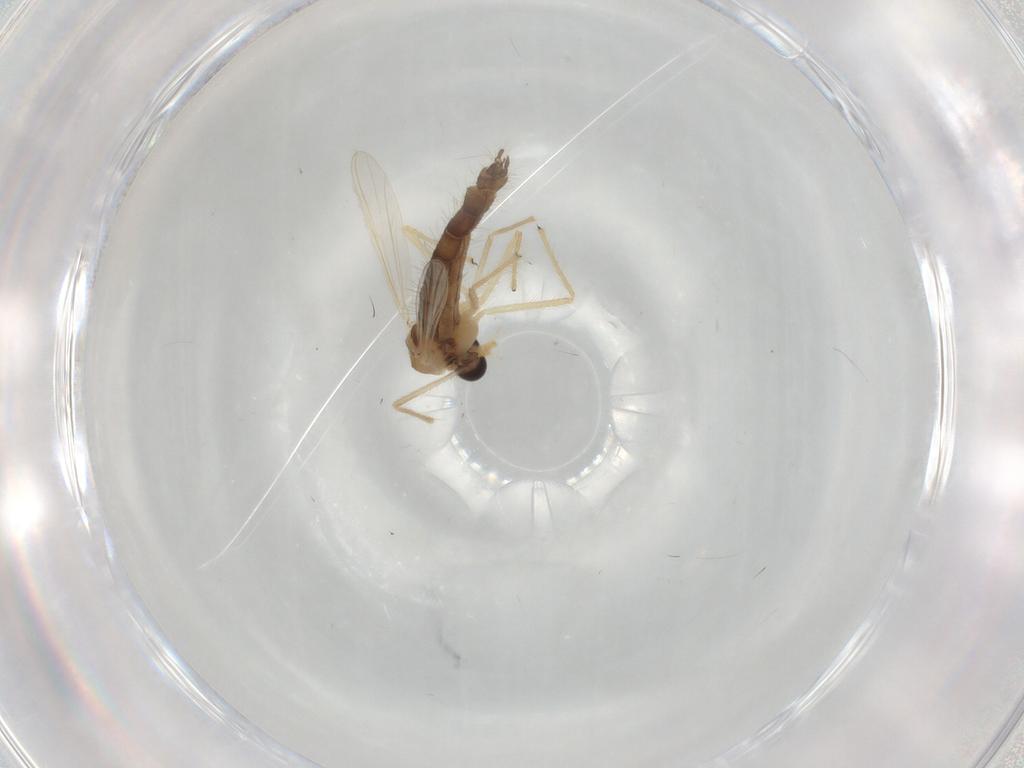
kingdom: Animalia
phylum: Arthropoda
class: Insecta
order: Diptera
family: Chironomidae
